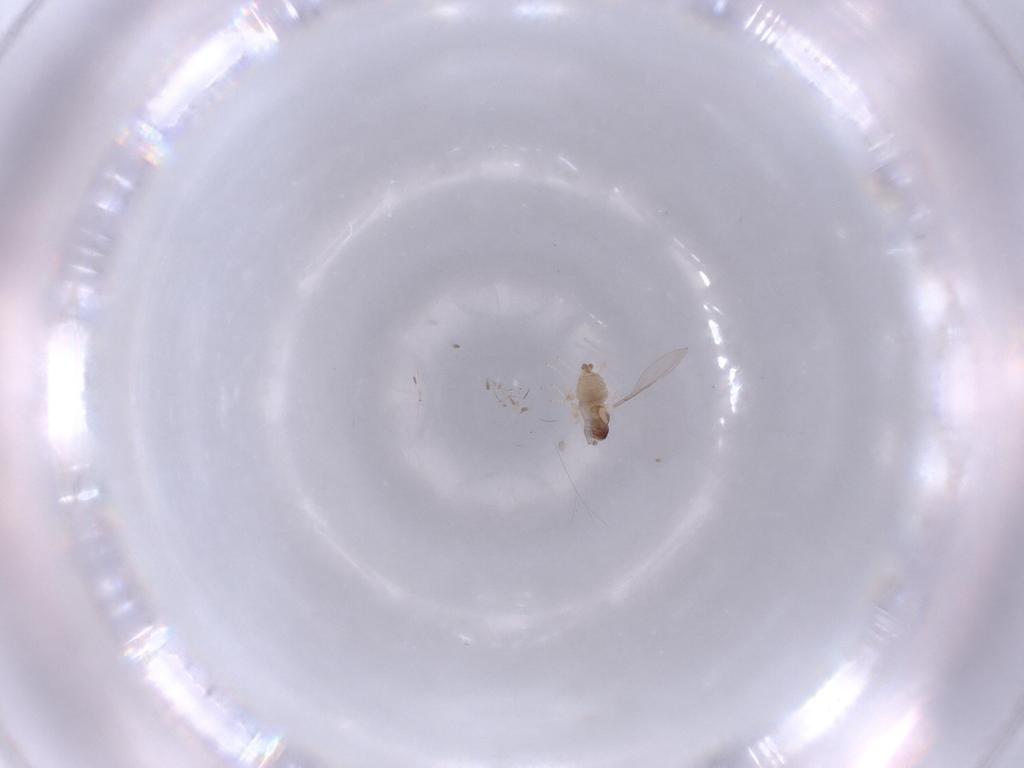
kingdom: Animalia
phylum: Arthropoda
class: Insecta
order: Diptera
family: Cecidomyiidae
